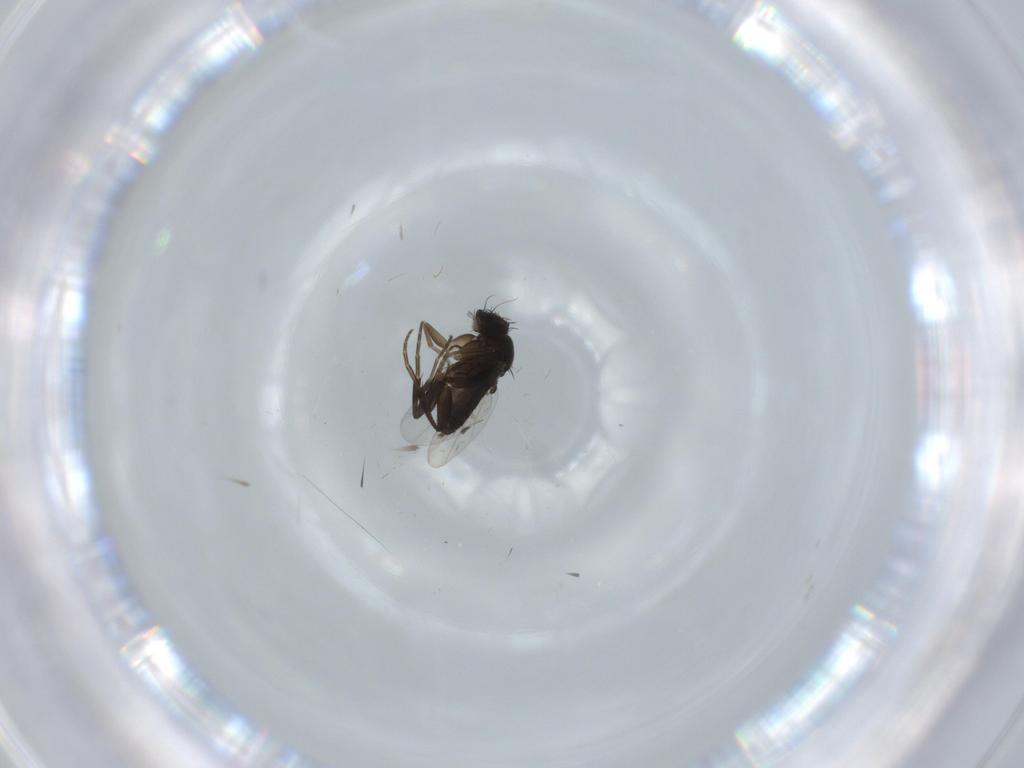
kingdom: Animalia
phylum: Arthropoda
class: Insecta
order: Diptera
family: Phoridae
